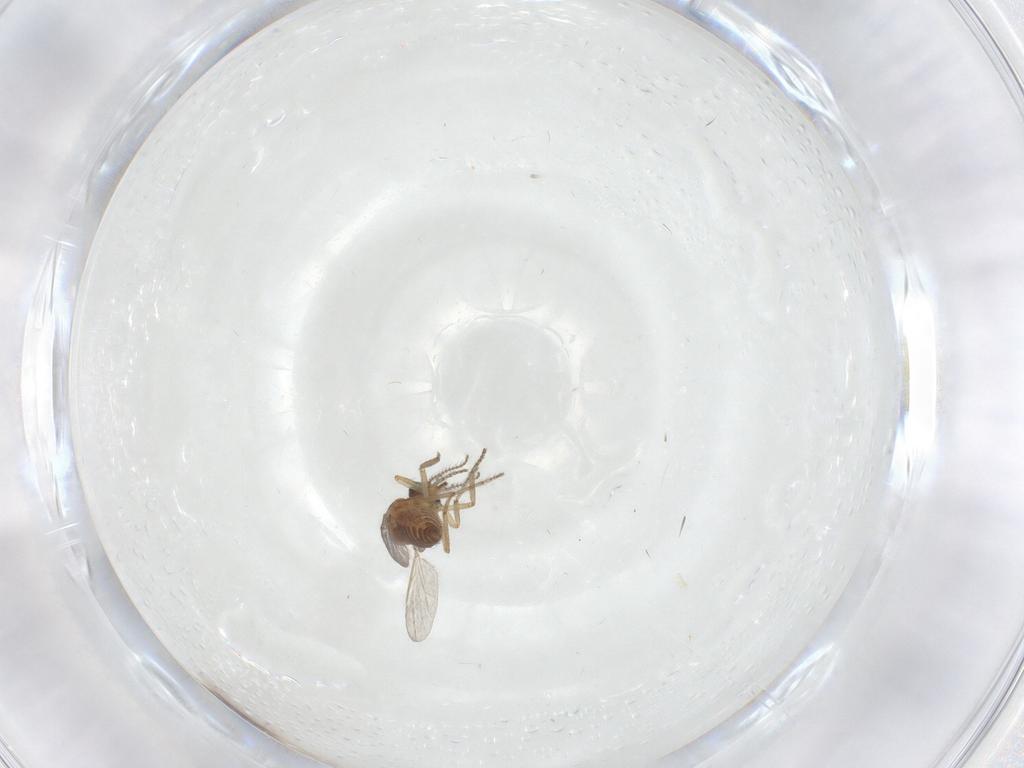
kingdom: Animalia
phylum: Arthropoda
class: Insecta
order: Diptera
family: Ceratopogonidae
